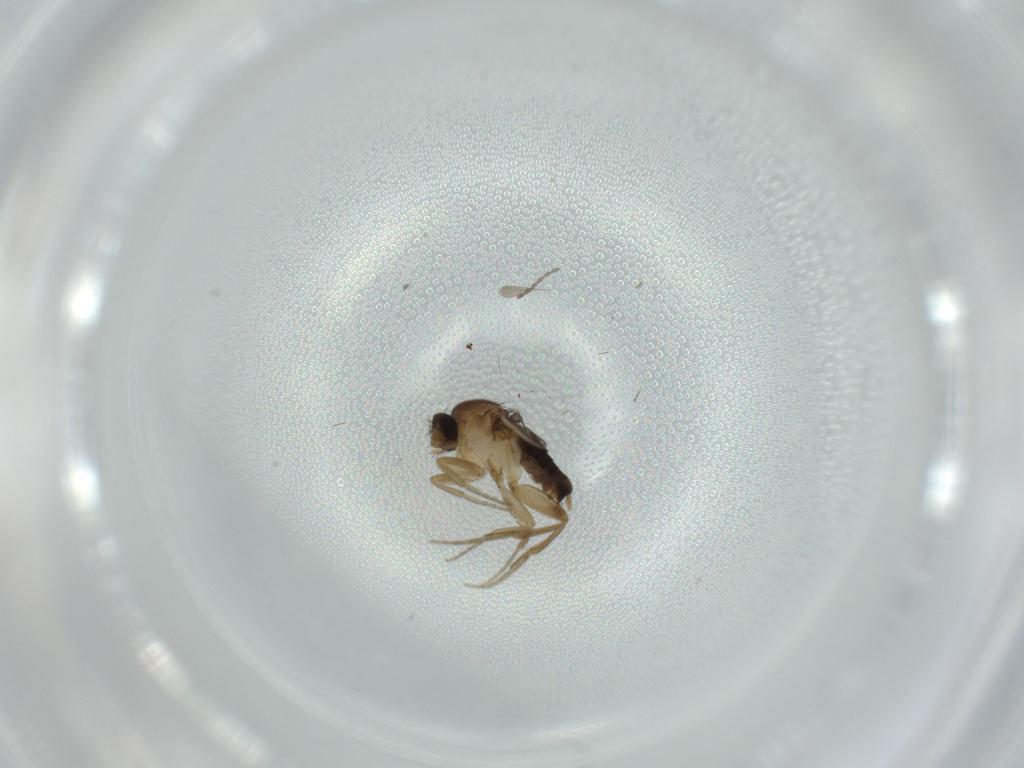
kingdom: Animalia
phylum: Arthropoda
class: Insecta
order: Diptera
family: Phoridae
